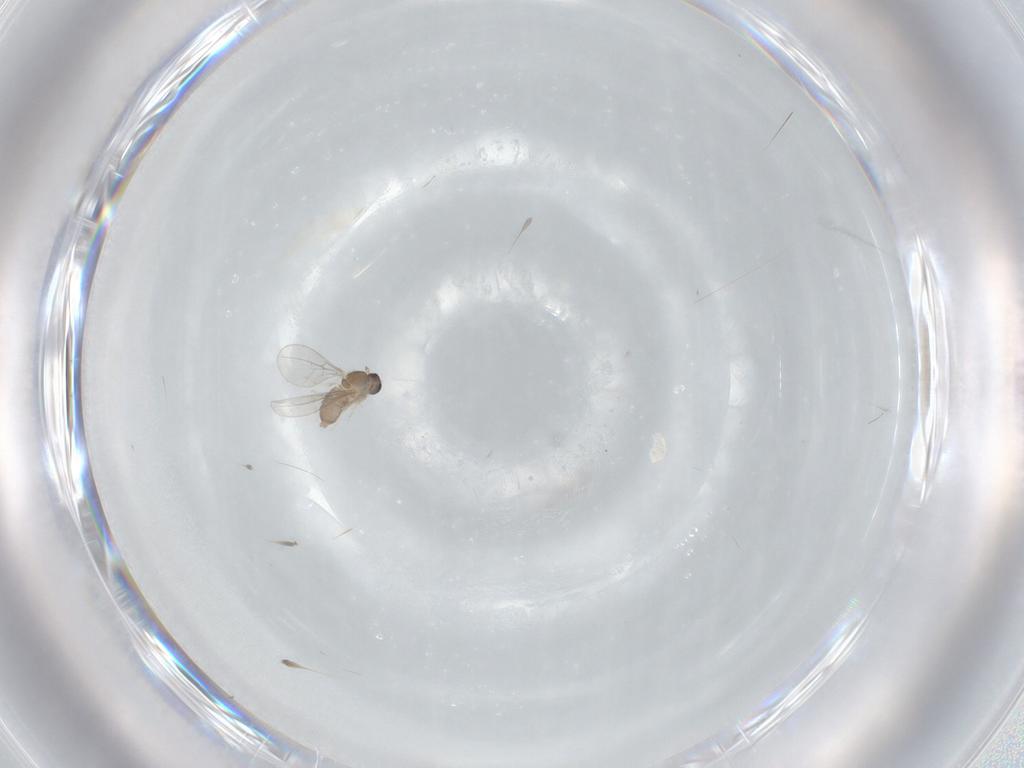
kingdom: Animalia
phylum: Arthropoda
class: Insecta
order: Diptera
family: Cecidomyiidae
